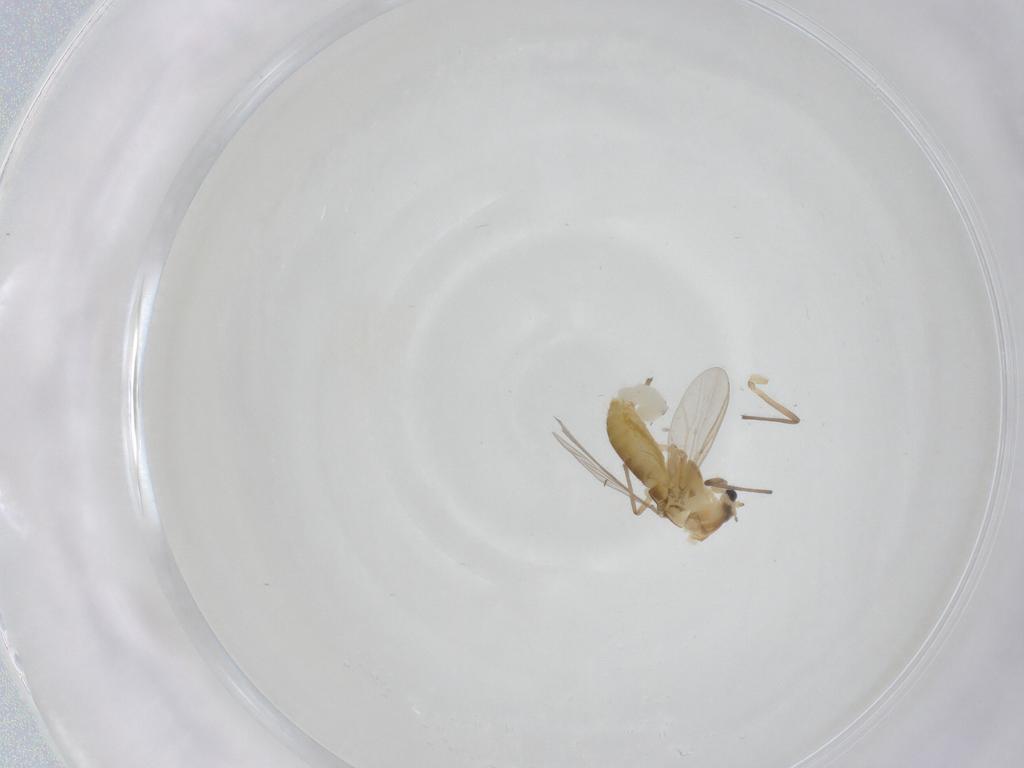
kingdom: Animalia
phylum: Arthropoda
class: Insecta
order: Diptera
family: Chironomidae
